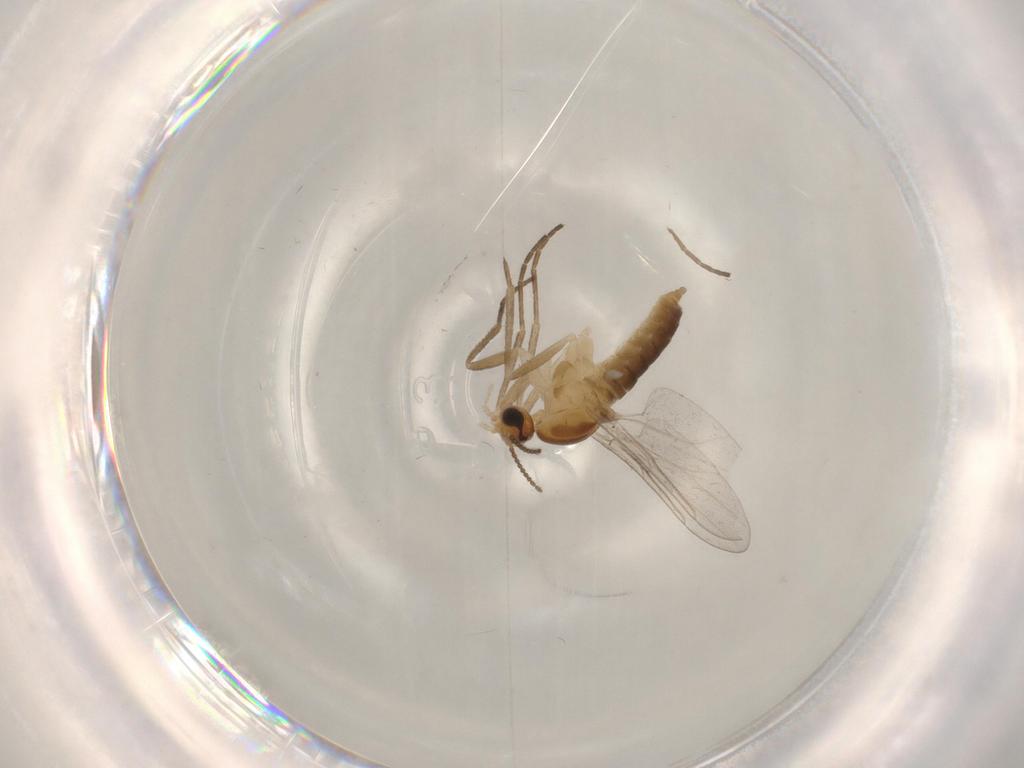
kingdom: Animalia
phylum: Arthropoda
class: Insecta
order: Diptera
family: Cecidomyiidae
